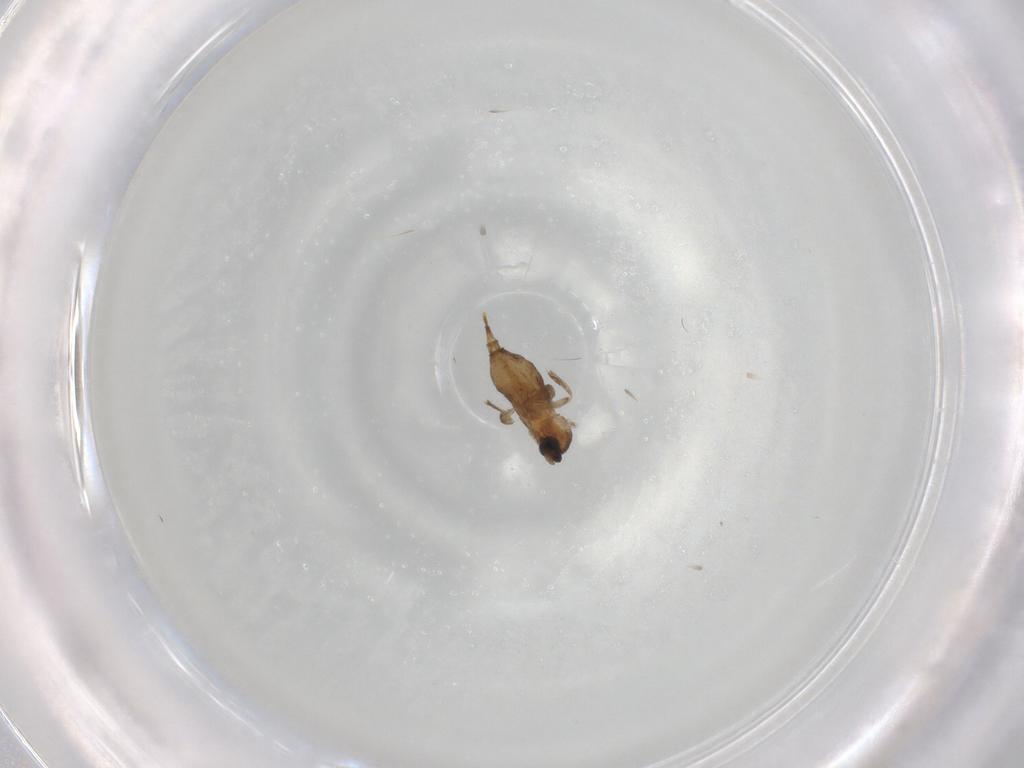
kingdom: Animalia
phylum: Arthropoda
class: Insecta
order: Diptera
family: Cecidomyiidae
